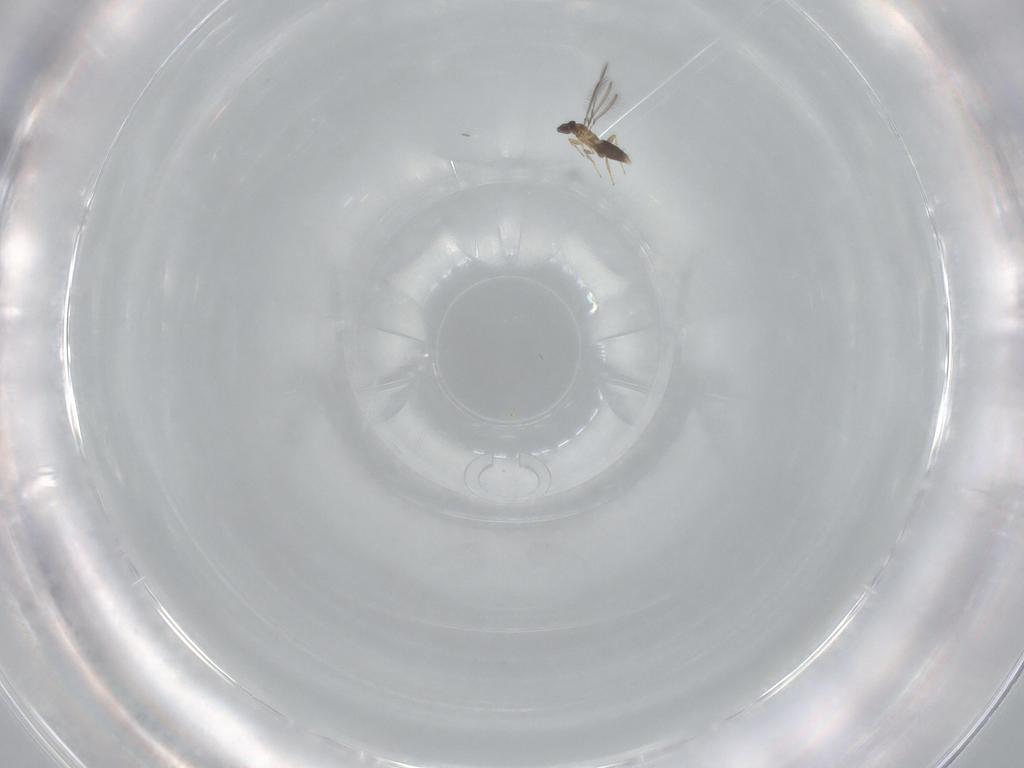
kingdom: Animalia
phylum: Arthropoda
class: Insecta
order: Hymenoptera
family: Mymaridae
